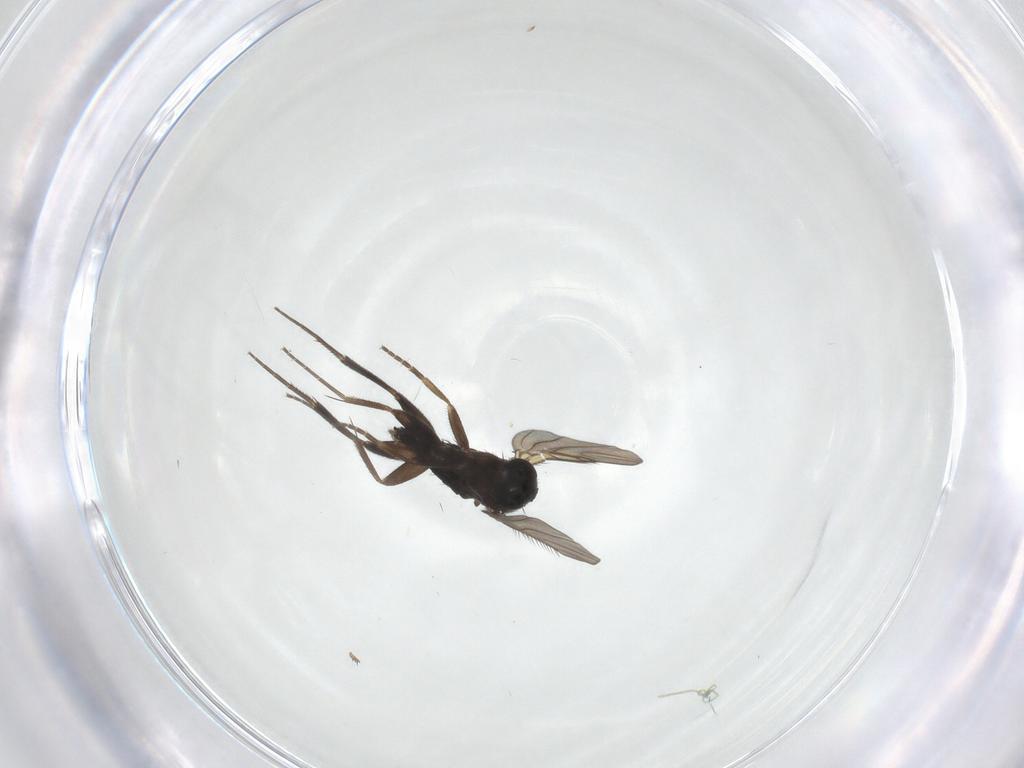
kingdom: Animalia
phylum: Arthropoda
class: Insecta
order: Diptera
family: Phoridae
